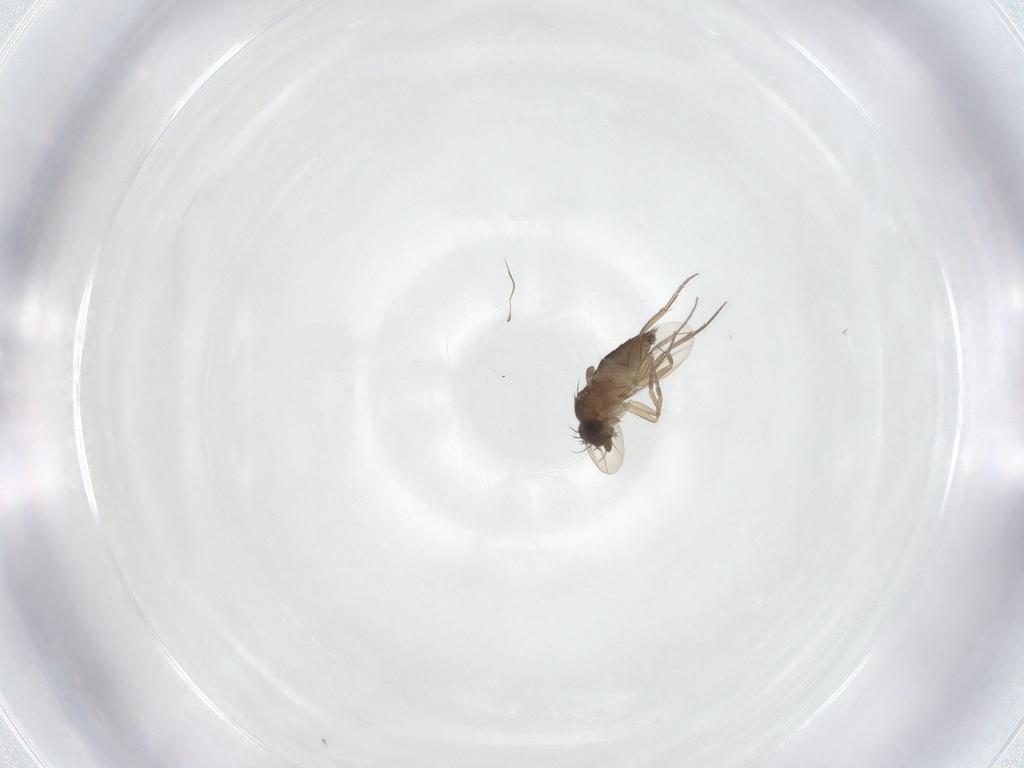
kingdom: Animalia
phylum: Arthropoda
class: Insecta
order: Diptera
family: Phoridae
